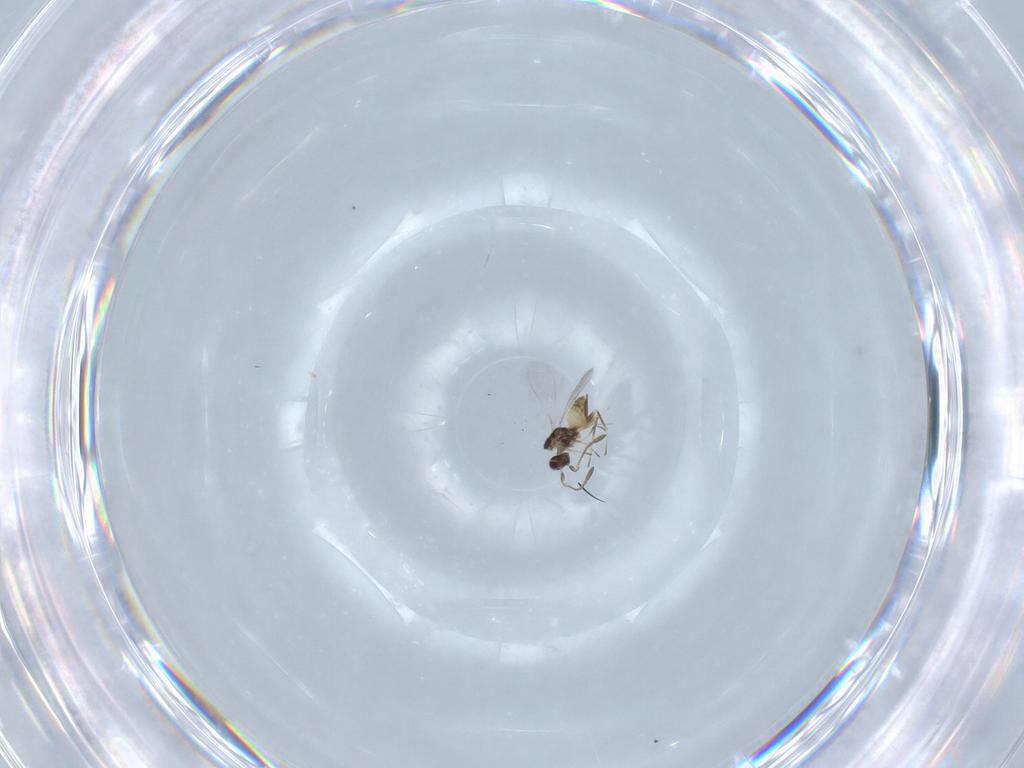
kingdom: Animalia
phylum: Arthropoda
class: Insecta
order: Hymenoptera
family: Mymaridae
